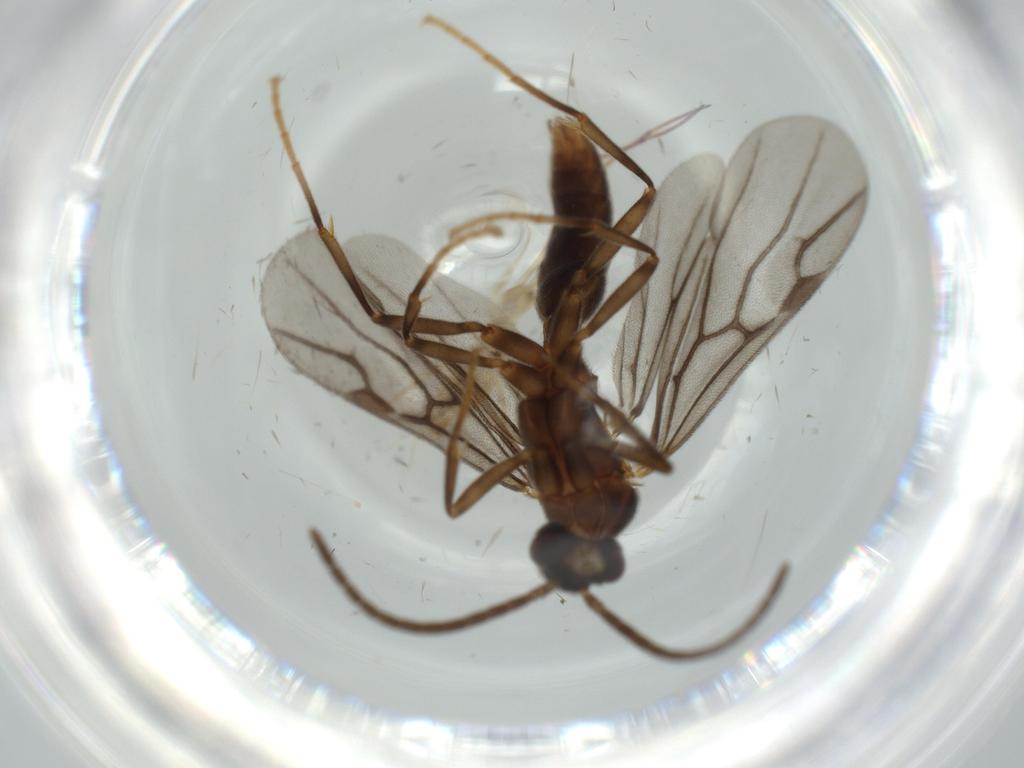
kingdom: Animalia
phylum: Arthropoda
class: Insecta
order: Hymenoptera
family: Formicidae
